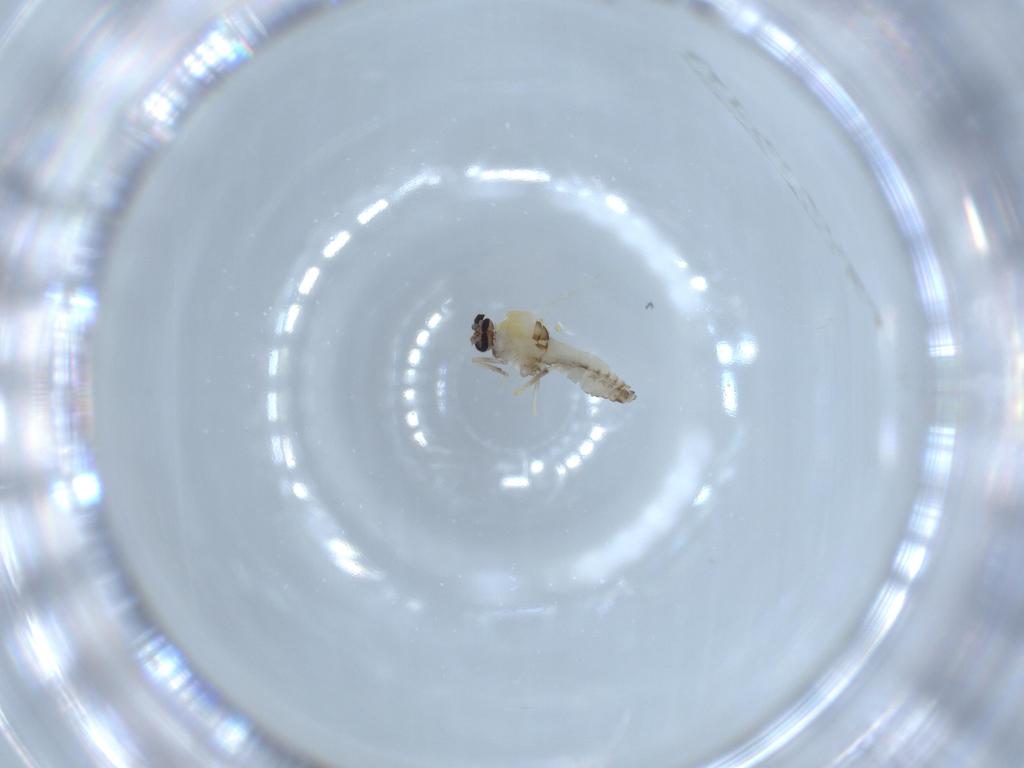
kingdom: Animalia
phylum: Arthropoda
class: Insecta
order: Diptera
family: Ceratopogonidae
